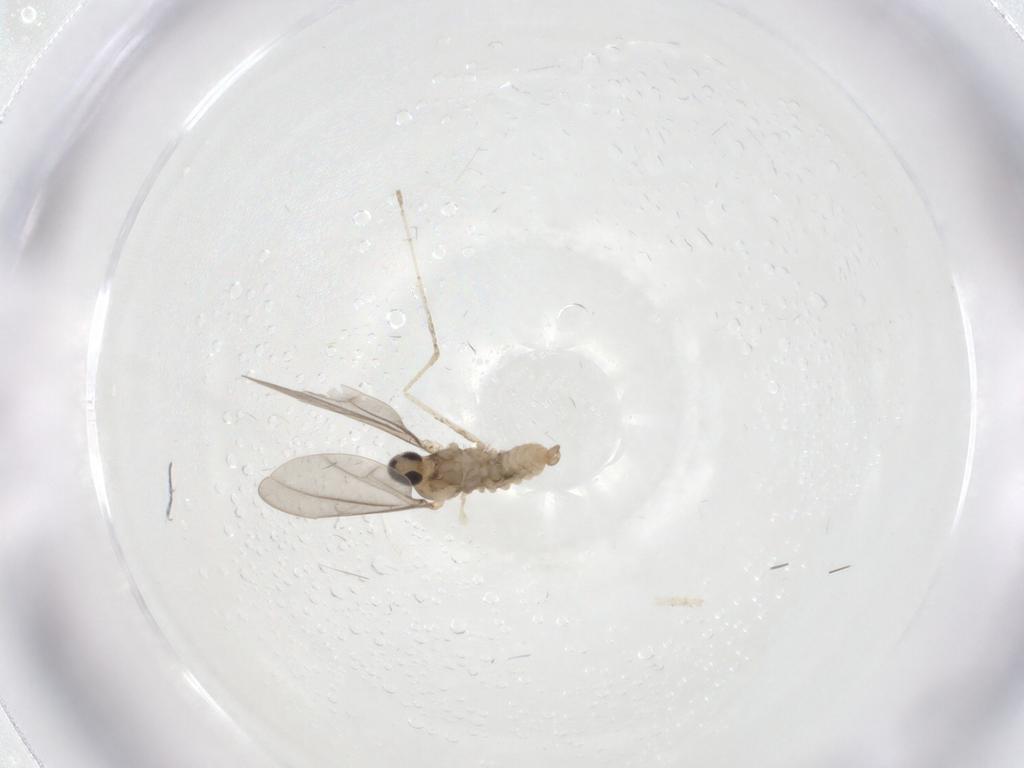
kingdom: Animalia
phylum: Arthropoda
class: Insecta
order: Diptera
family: Cecidomyiidae
